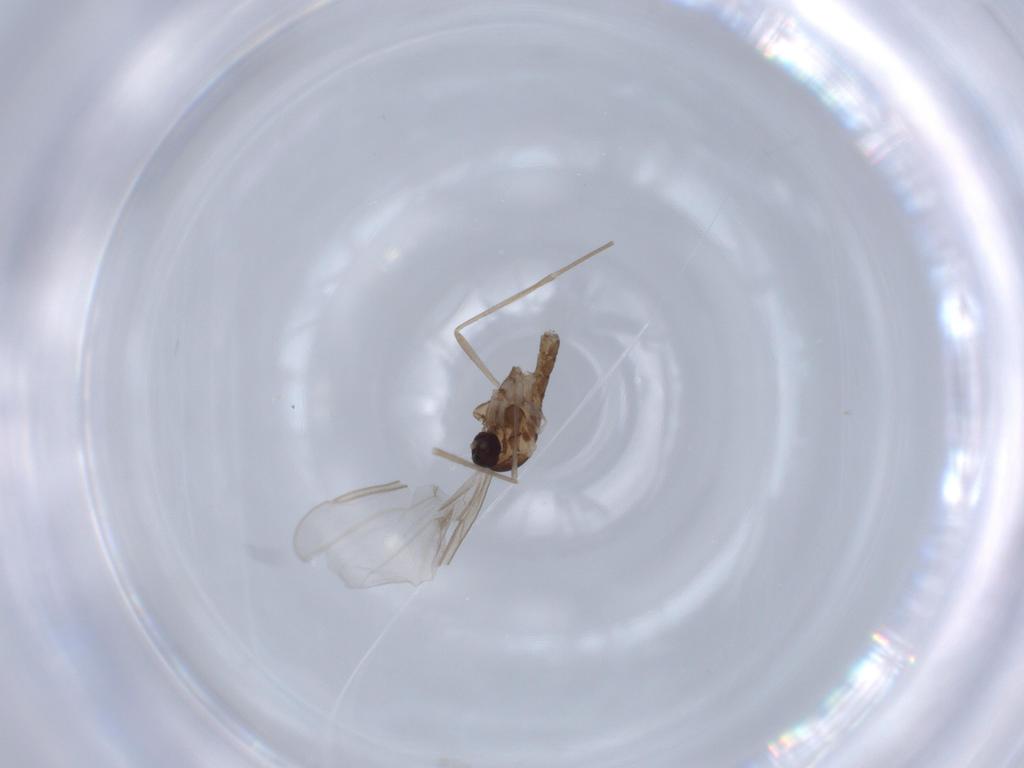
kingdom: Animalia
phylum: Arthropoda
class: Insecta
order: Diptera
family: Cecidomyiidae
